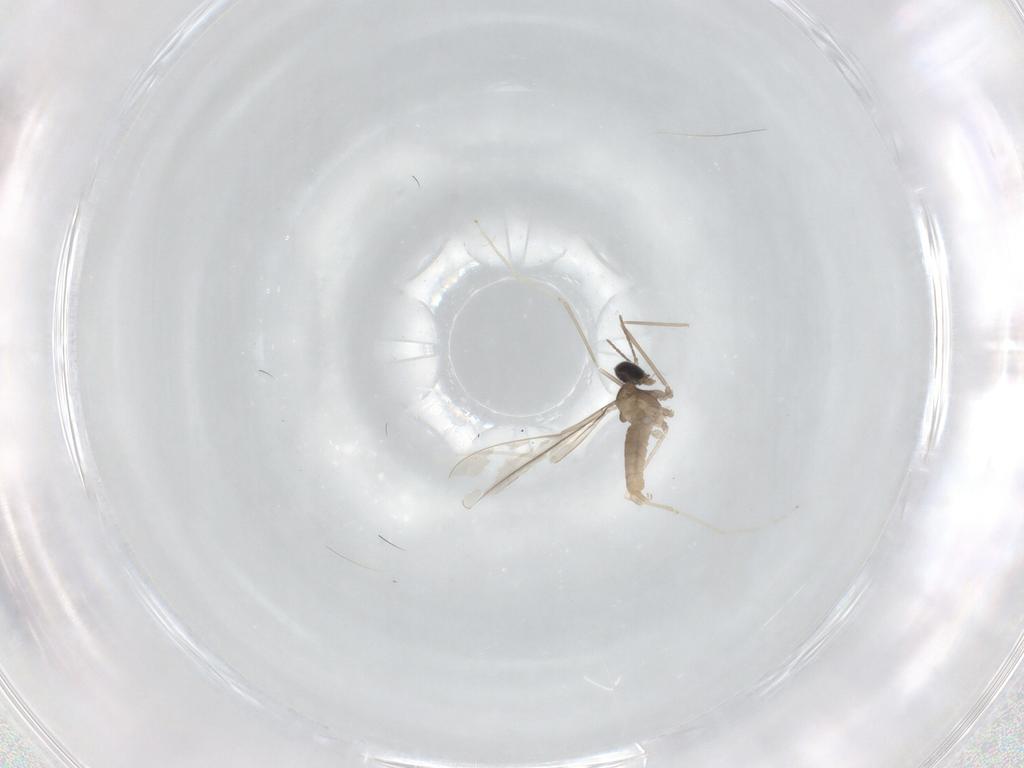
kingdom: Animalia
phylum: Arthropoda
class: Insecta
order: Diptera
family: Cecidomyiidae
